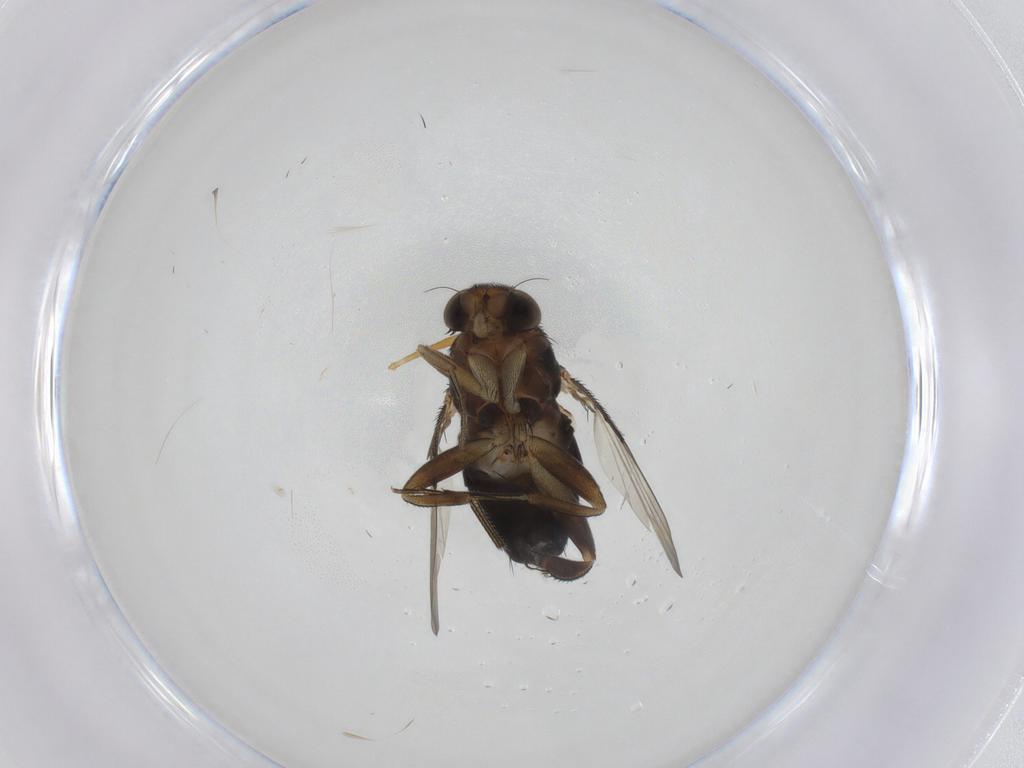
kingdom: Animalia
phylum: Arthropoda
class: Insecta
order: Diptera
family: Phoridae
